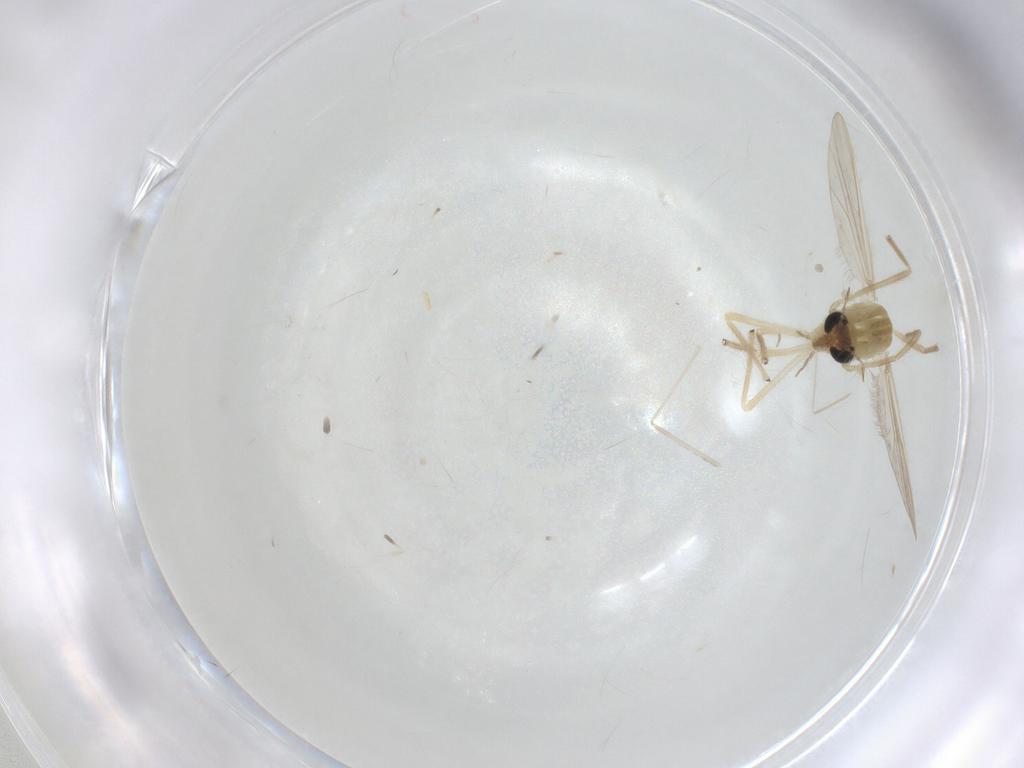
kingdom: Animalia
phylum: Arthropoda
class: Insecta
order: Diptera
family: Cecidomyiidae
